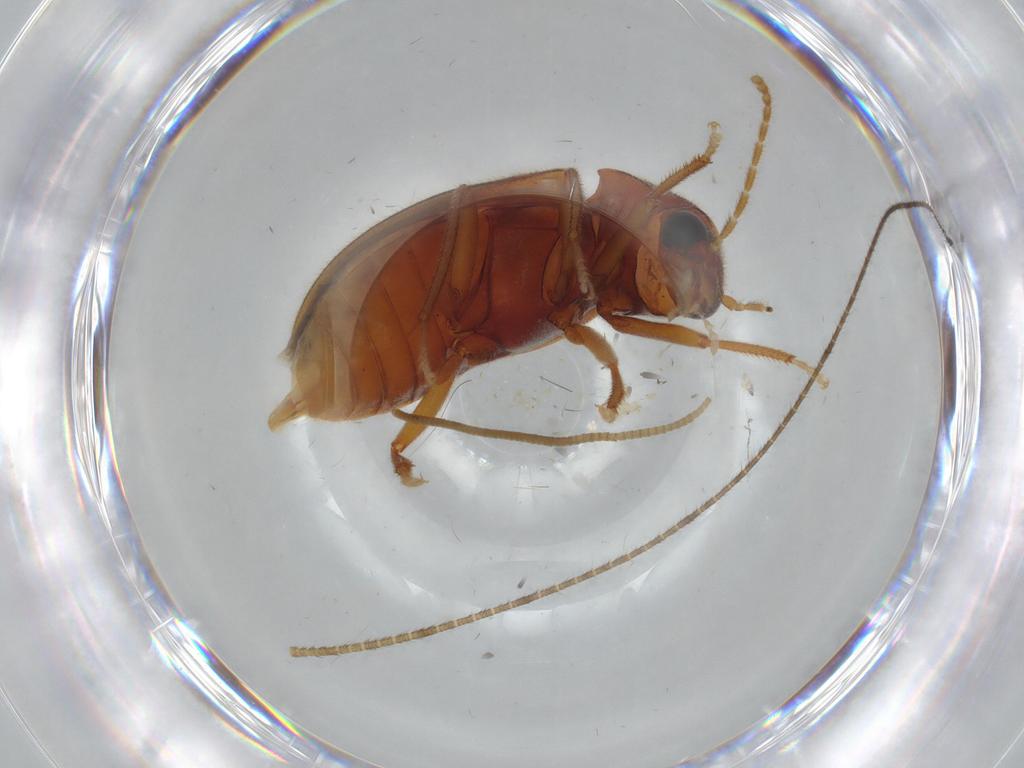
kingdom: Animalia
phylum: Arthropoda
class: Insecta
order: Coleoptera
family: Ptilodactylidae
